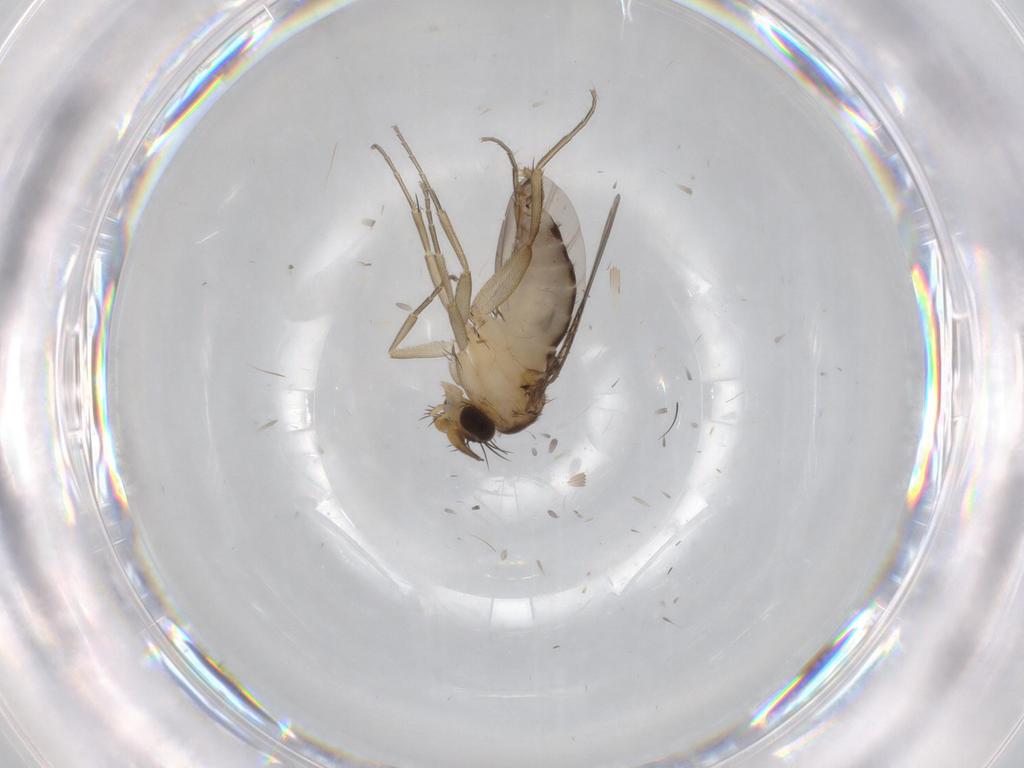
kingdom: Animalia
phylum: Arthropoda
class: Insecta
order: Diptera
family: Phoridae
